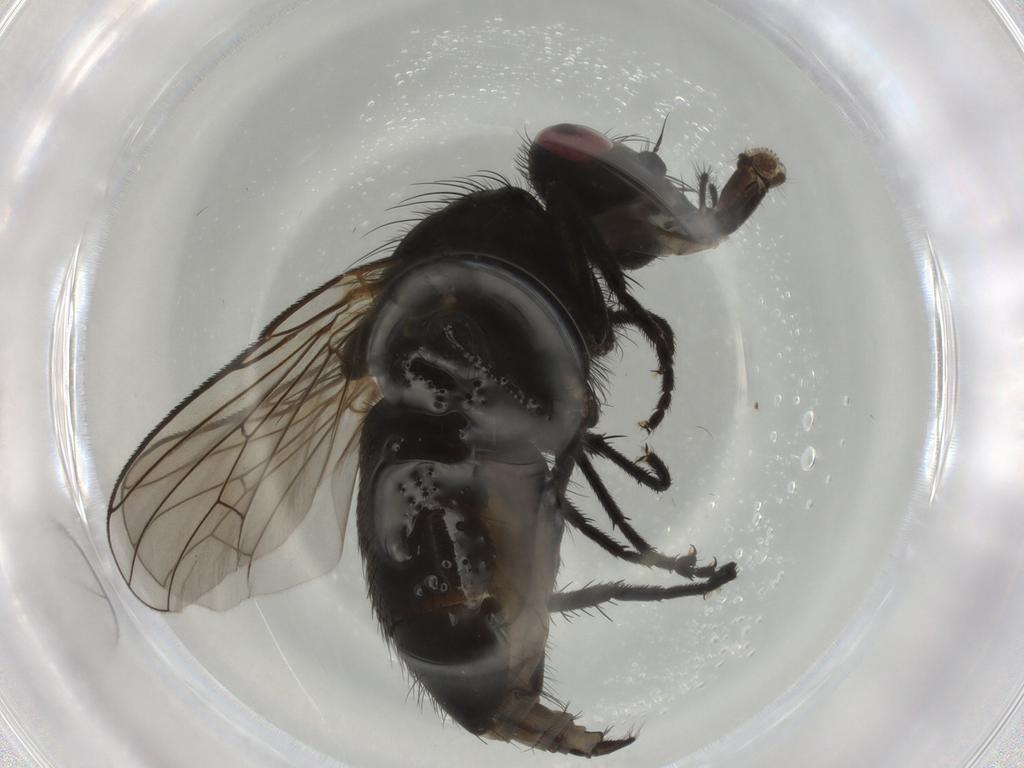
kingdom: Animalia
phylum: Arthropoda
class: Insecta
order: Diptera
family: Muscidae
